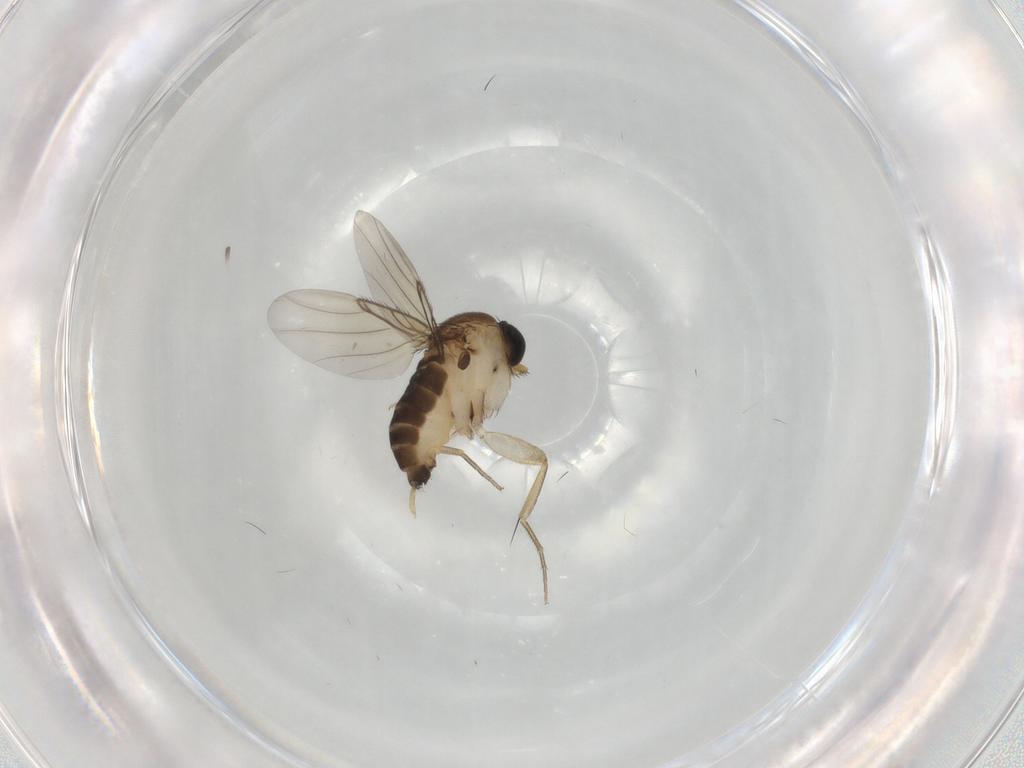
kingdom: Animalia
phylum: Arthropoda
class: Insecta
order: Diptera
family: Phoridae
